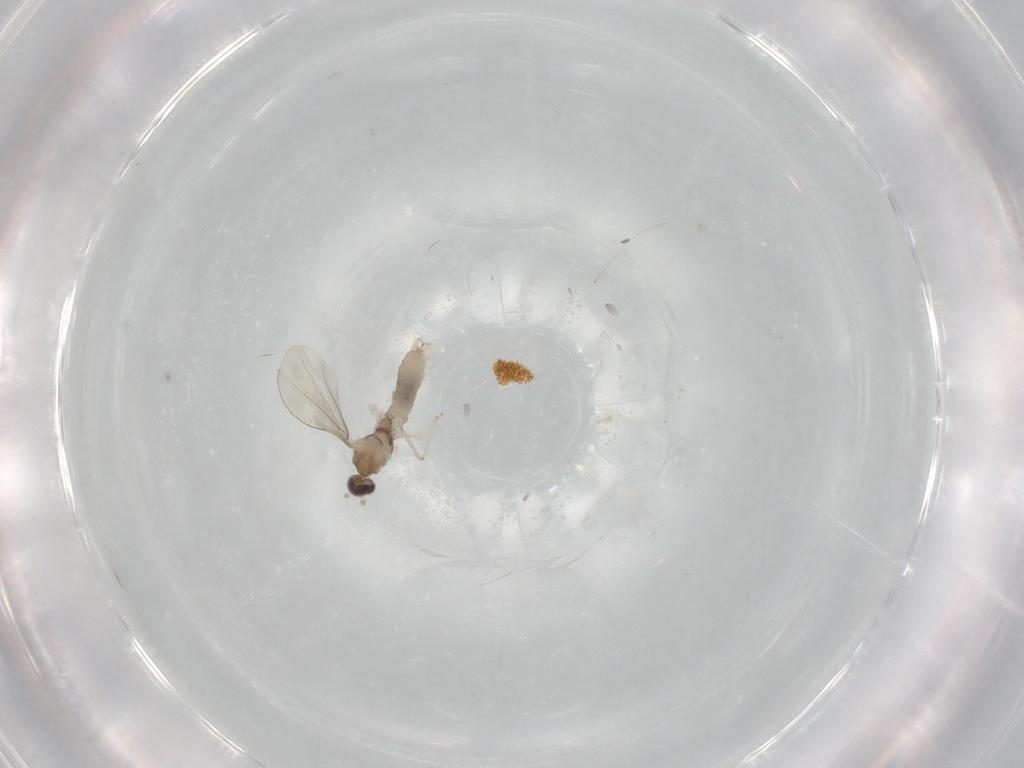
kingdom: Animalia
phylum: Arthropoda
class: Insecta
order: Diptera
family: Cecidomyiidae
